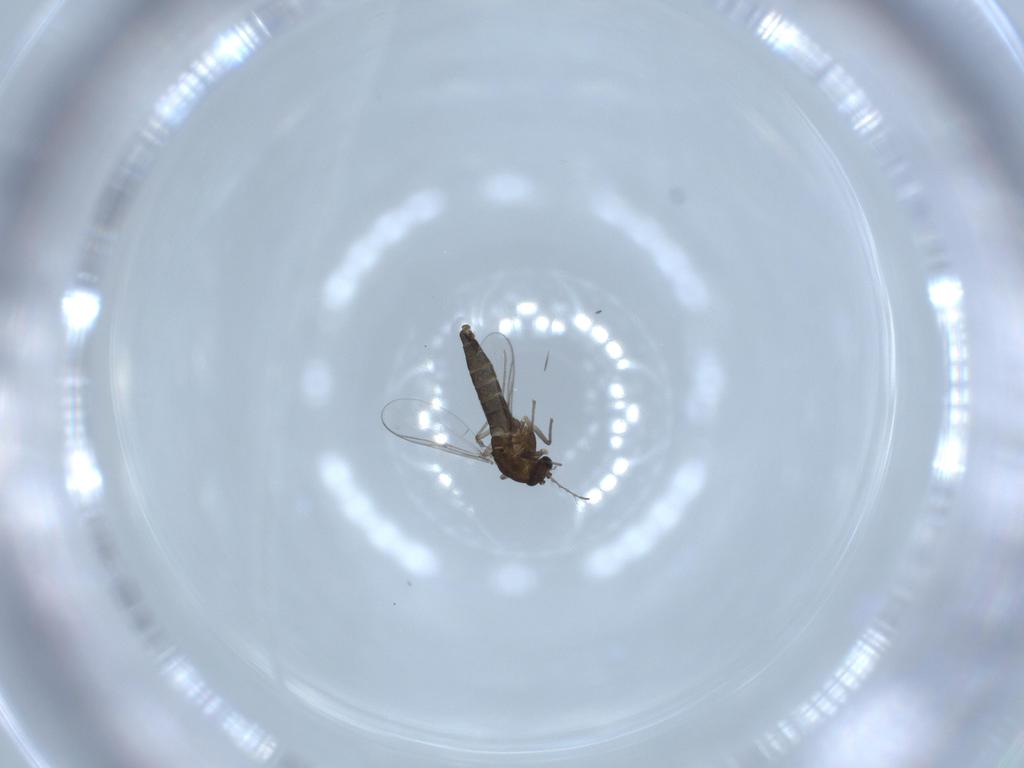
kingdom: Animalia
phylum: Arthropoda
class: Insecta
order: Diptera
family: Chironomidae
